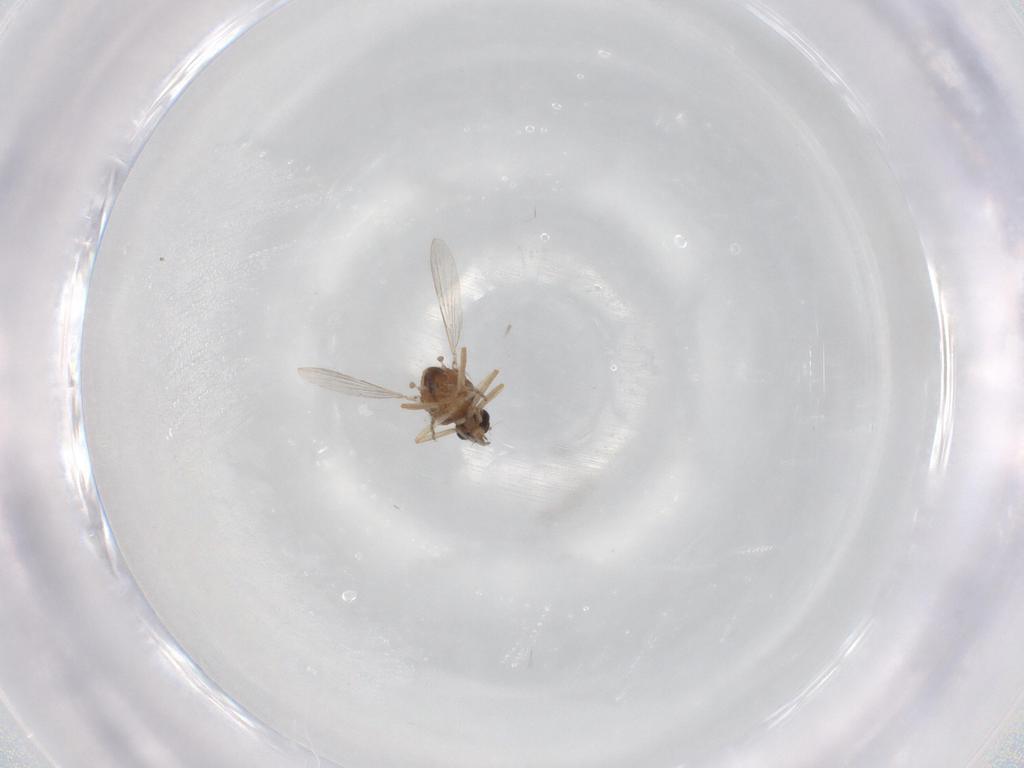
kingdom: Animalia
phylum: Arthropoda
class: Insecta
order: Diptera
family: Ceratopogonidae
